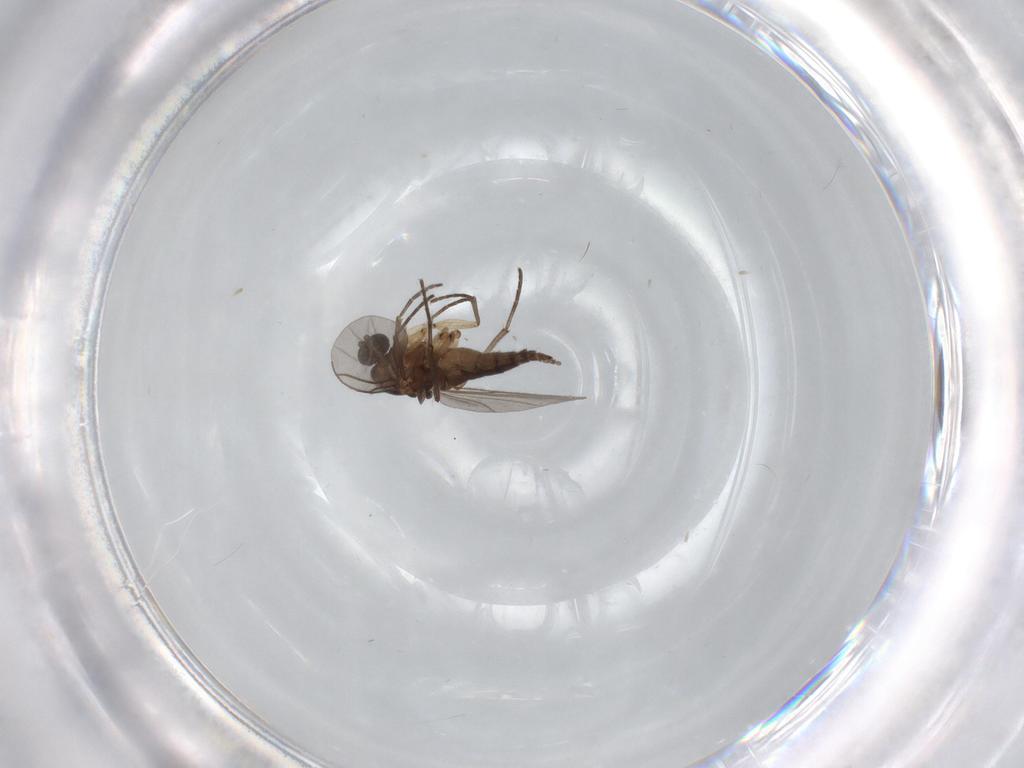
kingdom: Animalia
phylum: Arthropoda
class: Insecta
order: Diptera
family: Sciaridae
